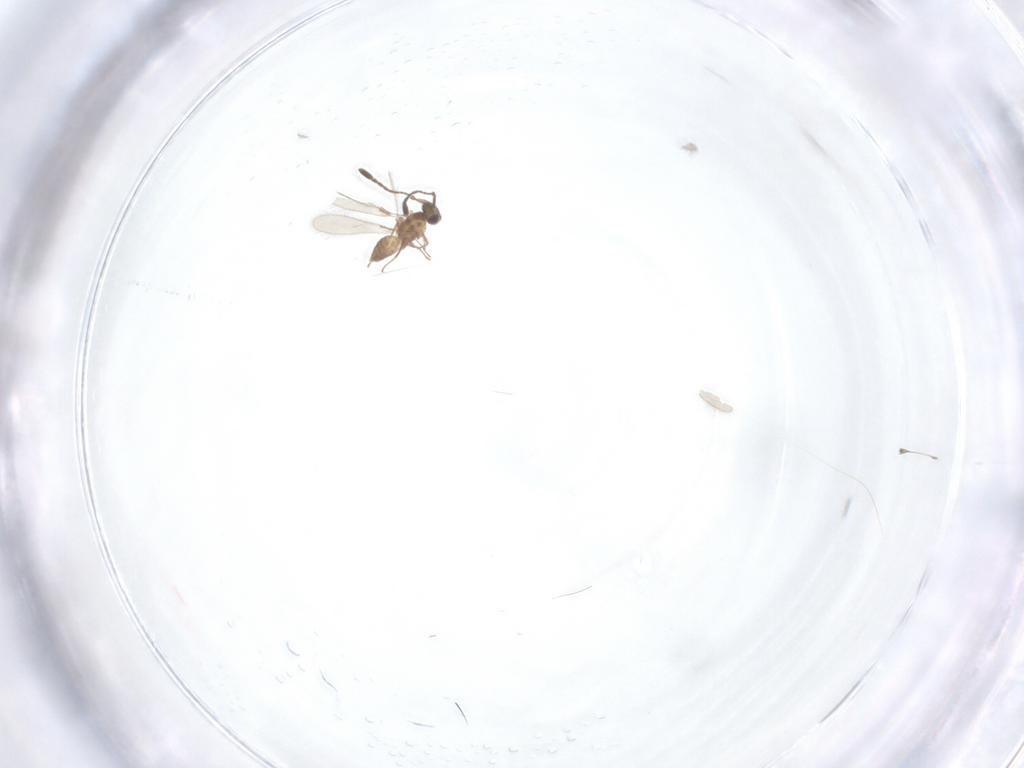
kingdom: Animalia
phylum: Arthropoda
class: Insecta
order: Hymenoptera
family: Mymaridae
